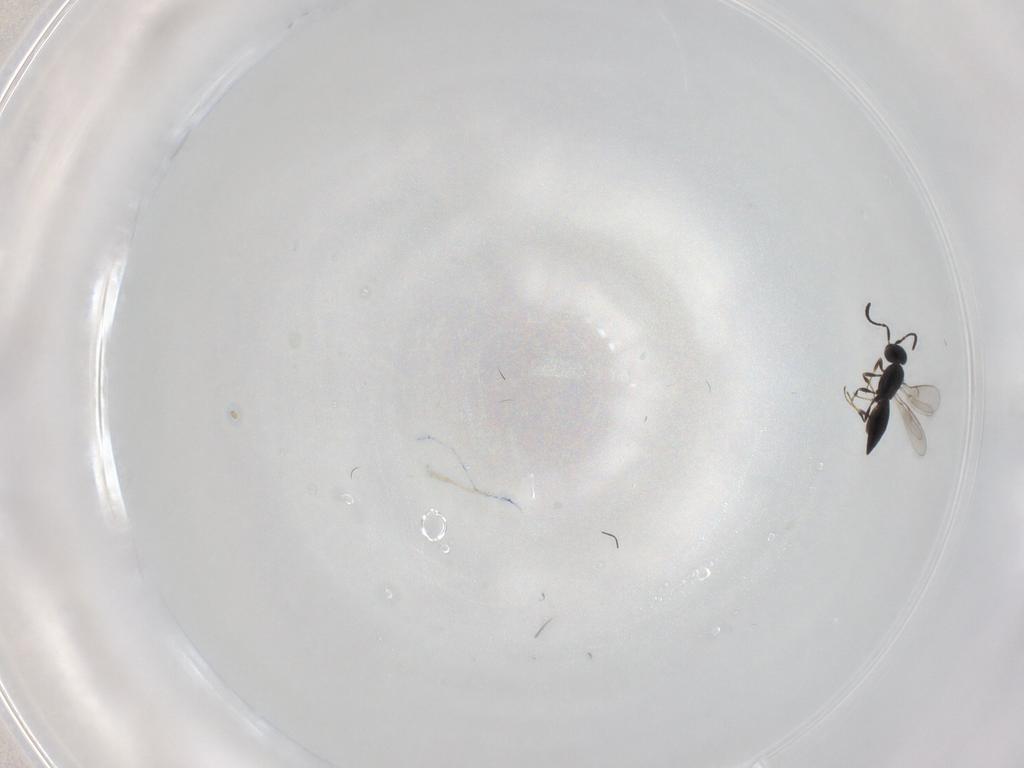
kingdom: Animalia
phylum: Arthropoda
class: Insecta
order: Hymenoptera
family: Scelionidae
